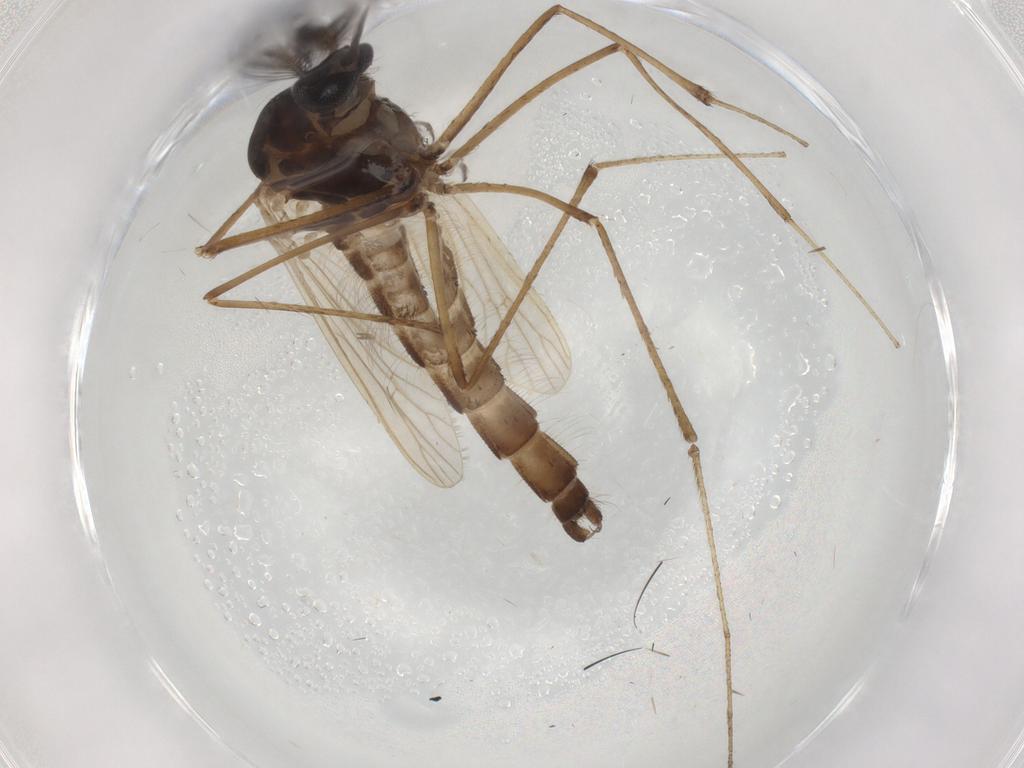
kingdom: Animalia
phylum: Arthropoda
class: Insecta
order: Diptera
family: Culicidae
